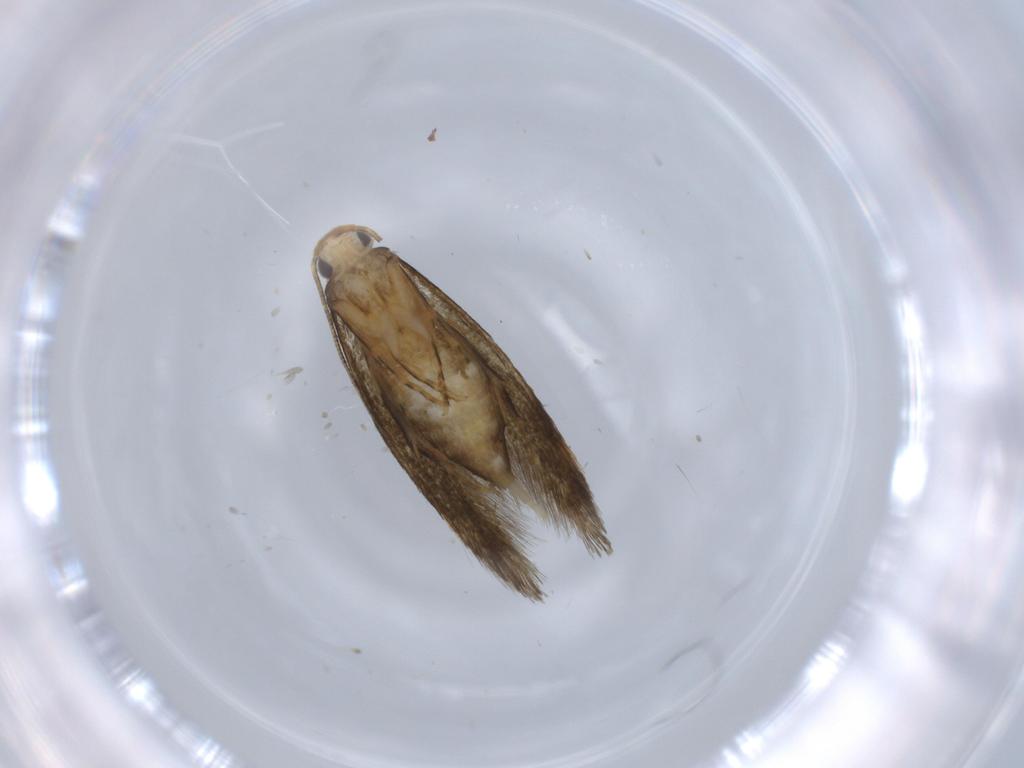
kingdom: Animalia
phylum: Arthropoda
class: Insecta
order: Lepidoptera
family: Tineidae
